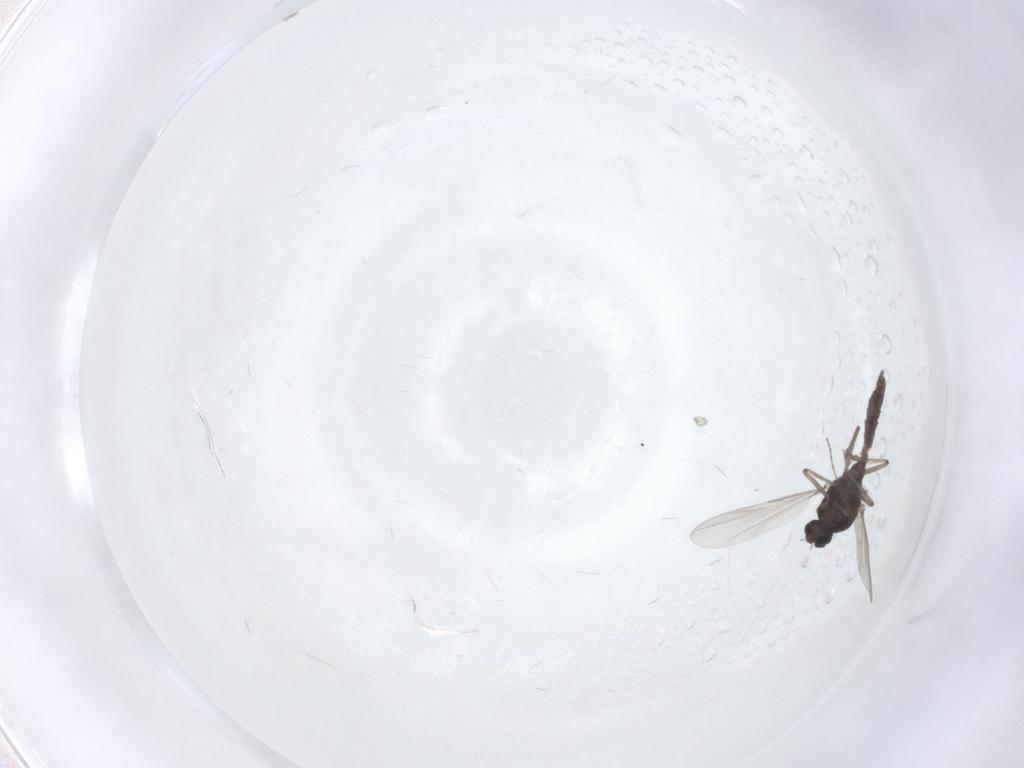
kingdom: Animalia
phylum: Arthropoda
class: Insecta
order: Diptera
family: Ceratopogonidae
